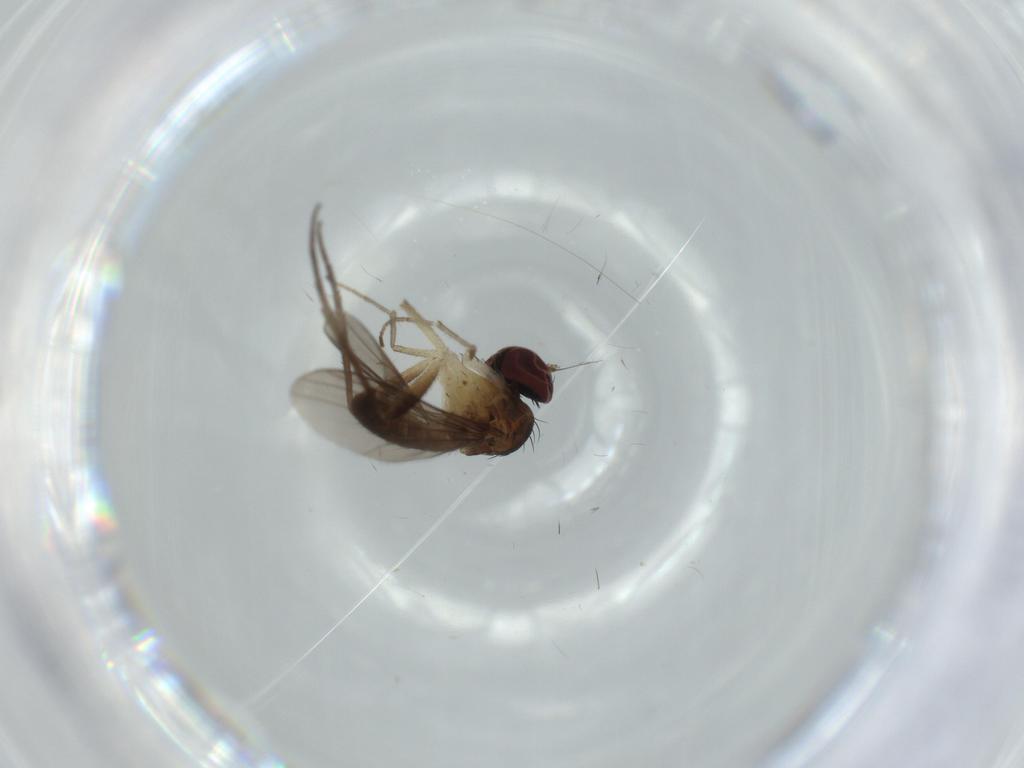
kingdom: Animalia
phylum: Arthropoda
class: Insecta
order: Diptera
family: Dolichopodidae
